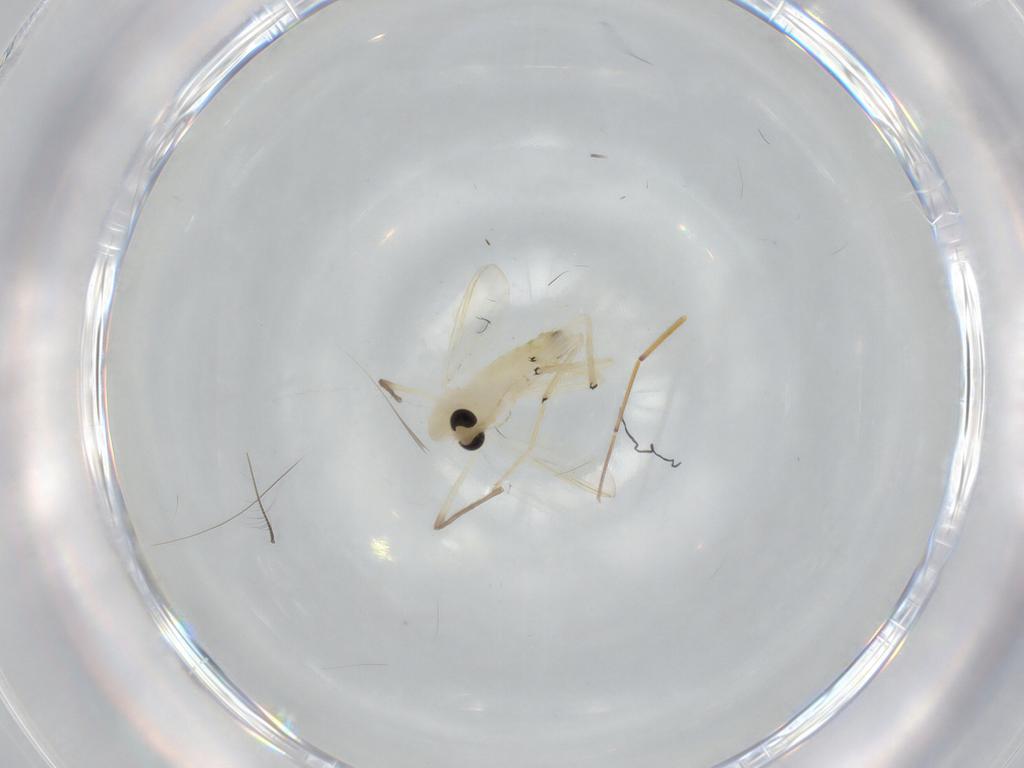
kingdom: Animalia
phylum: Arthropoda
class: Insecta
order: Diptera
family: Chironomidae
